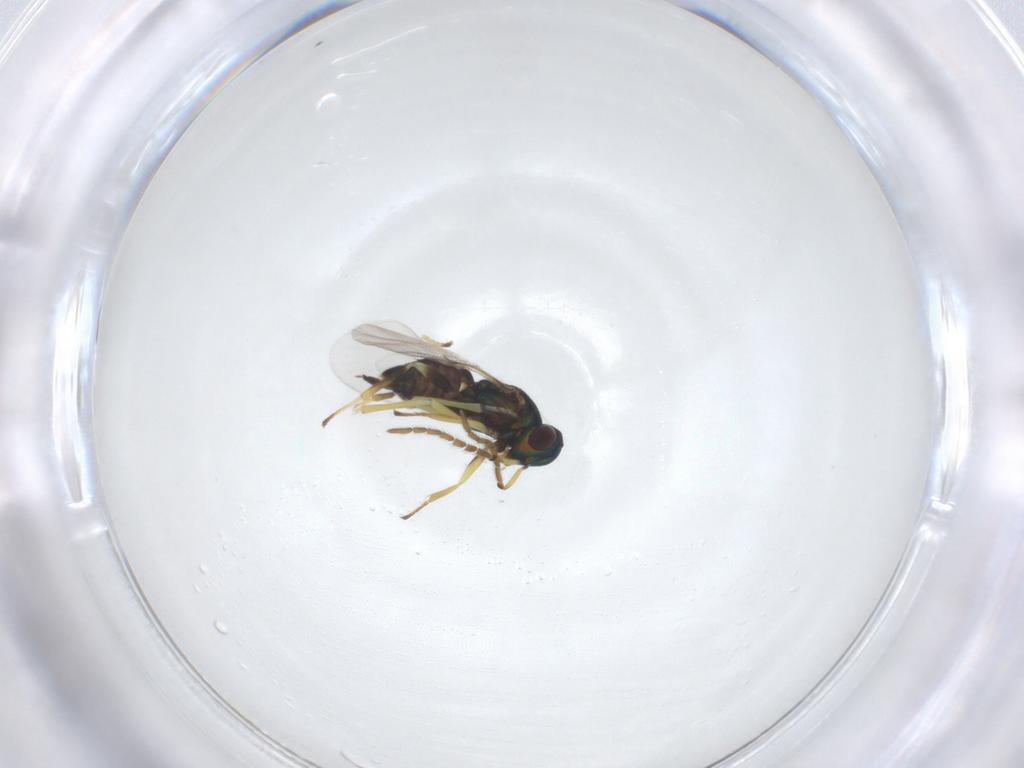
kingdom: Animalia
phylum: Arthropoda
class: Insecta
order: Hymenoptera
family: Encyrtidae
